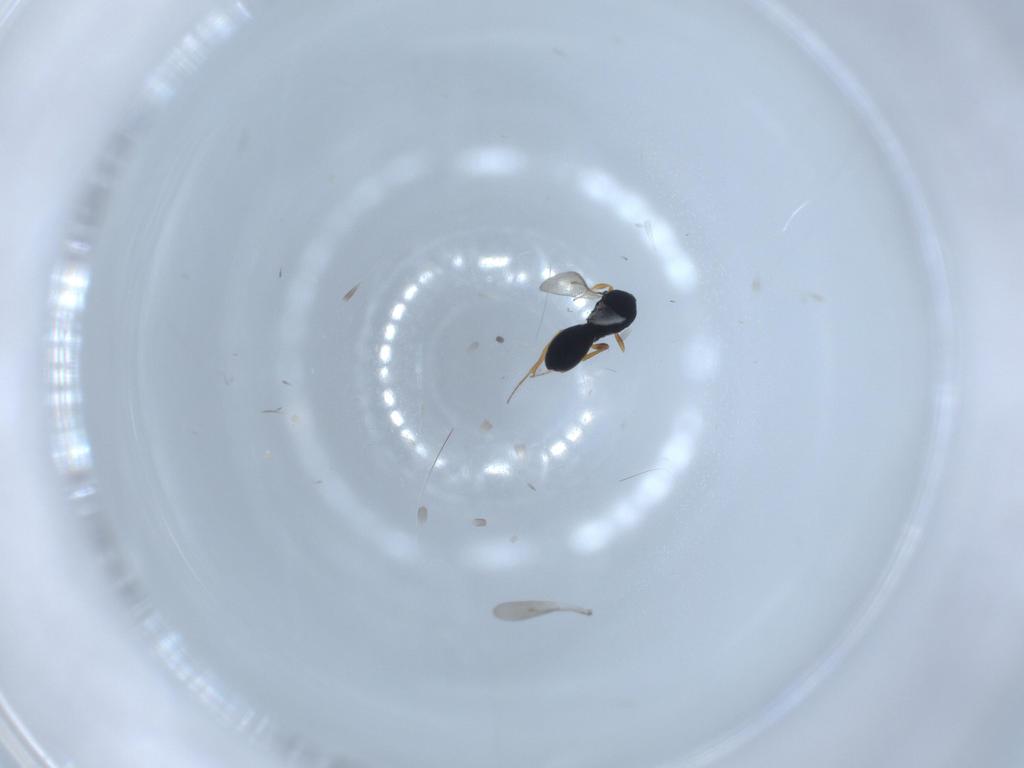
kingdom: Animalia
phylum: Arthropoda
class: Insecta
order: Hymenoptera
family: Scelionidae
